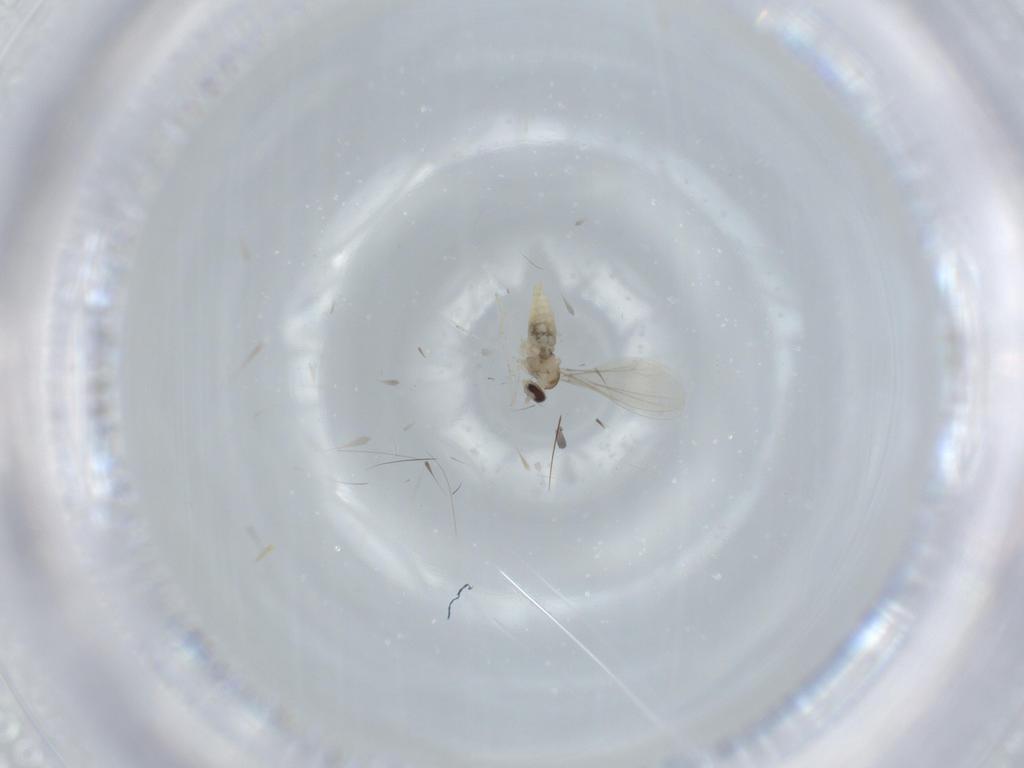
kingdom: Animalia
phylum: Arthropoda
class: Insecta
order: Diptera
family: Cecidomyiidae
